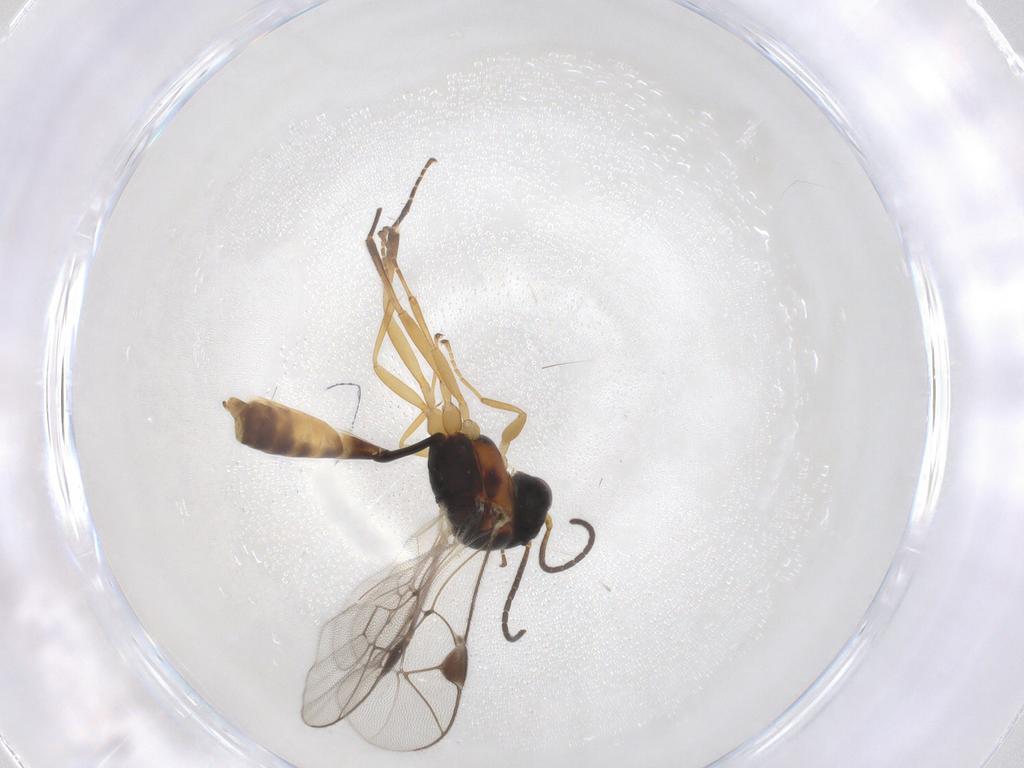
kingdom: Animalia
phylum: Arthropoda
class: Insecta
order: Hymenoptera
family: Ichneumonidae
